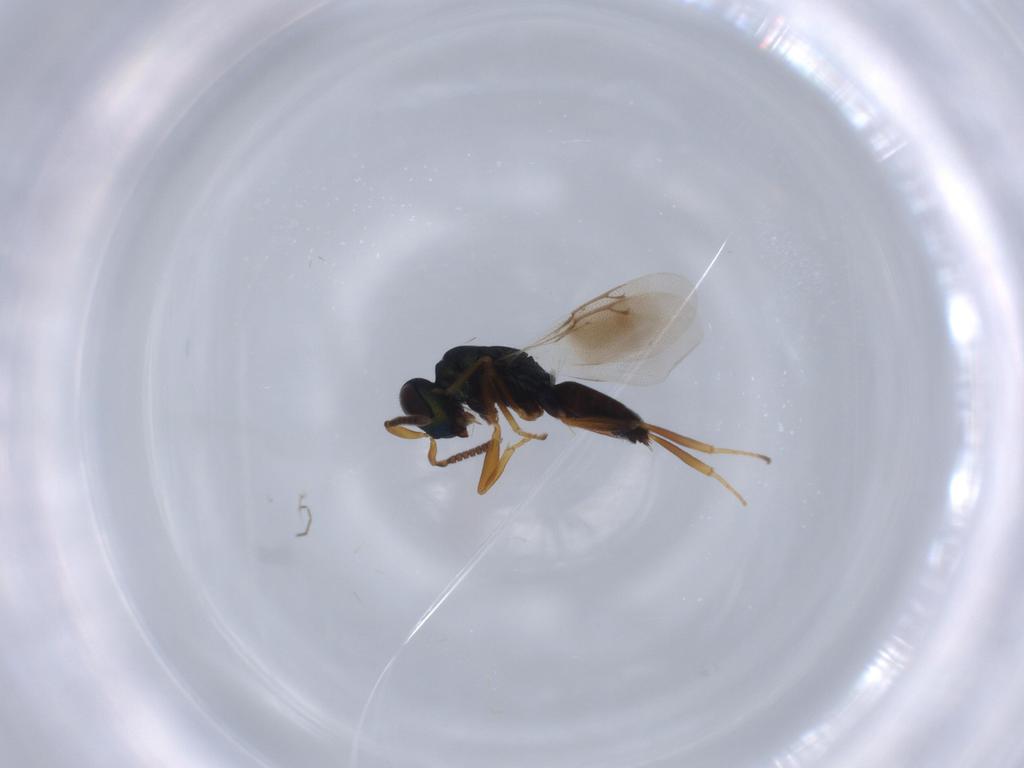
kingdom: Animalia
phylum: Arthropoda
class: Insecta
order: Hymenoptera
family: Pteromalidae
